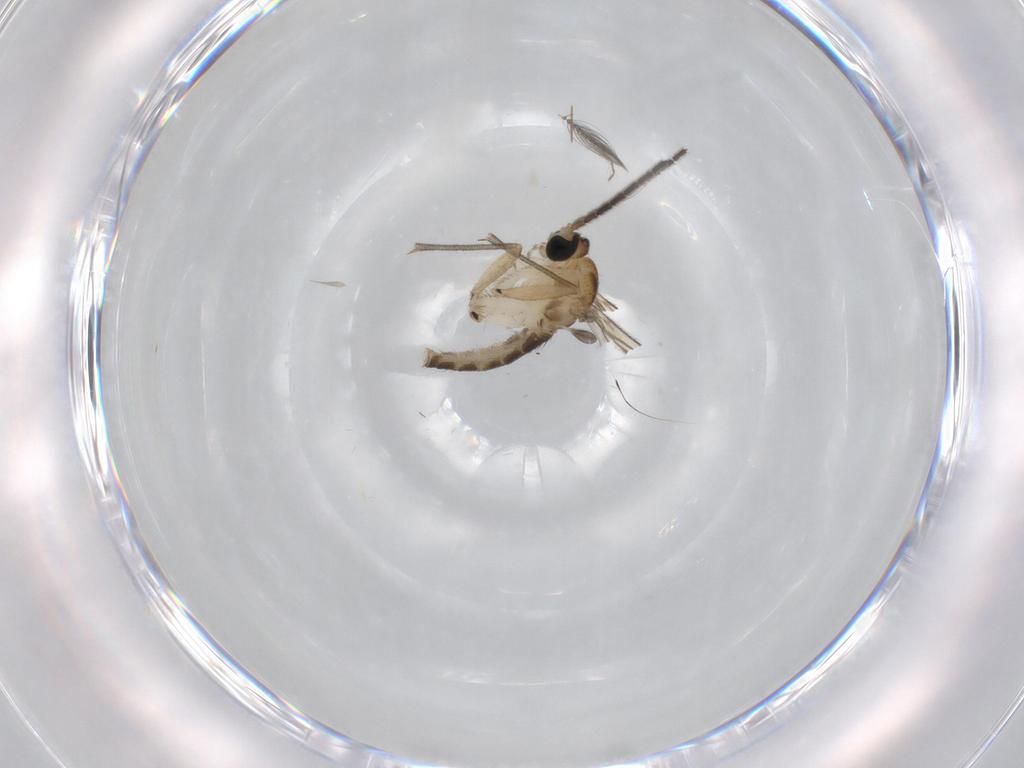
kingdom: Animalia
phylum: Arthropoda
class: Insecta
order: Diptera
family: Sciaridae
